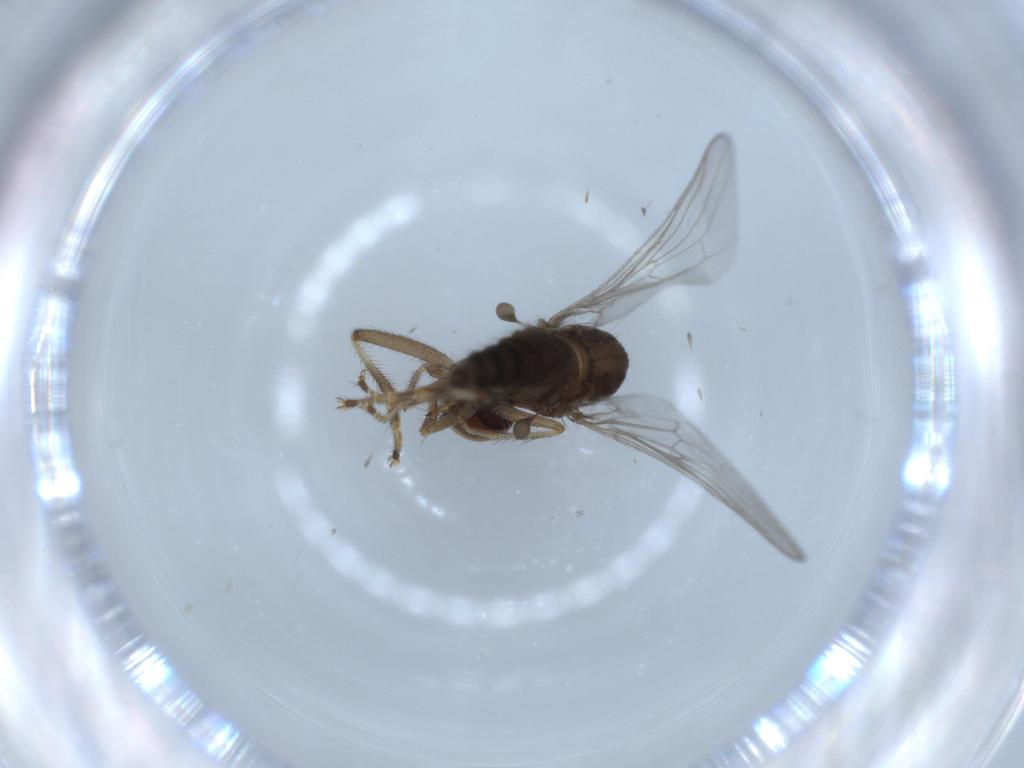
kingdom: Animalia
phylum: Arthropoda
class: Insecta
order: Diptera
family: Hybotidae
